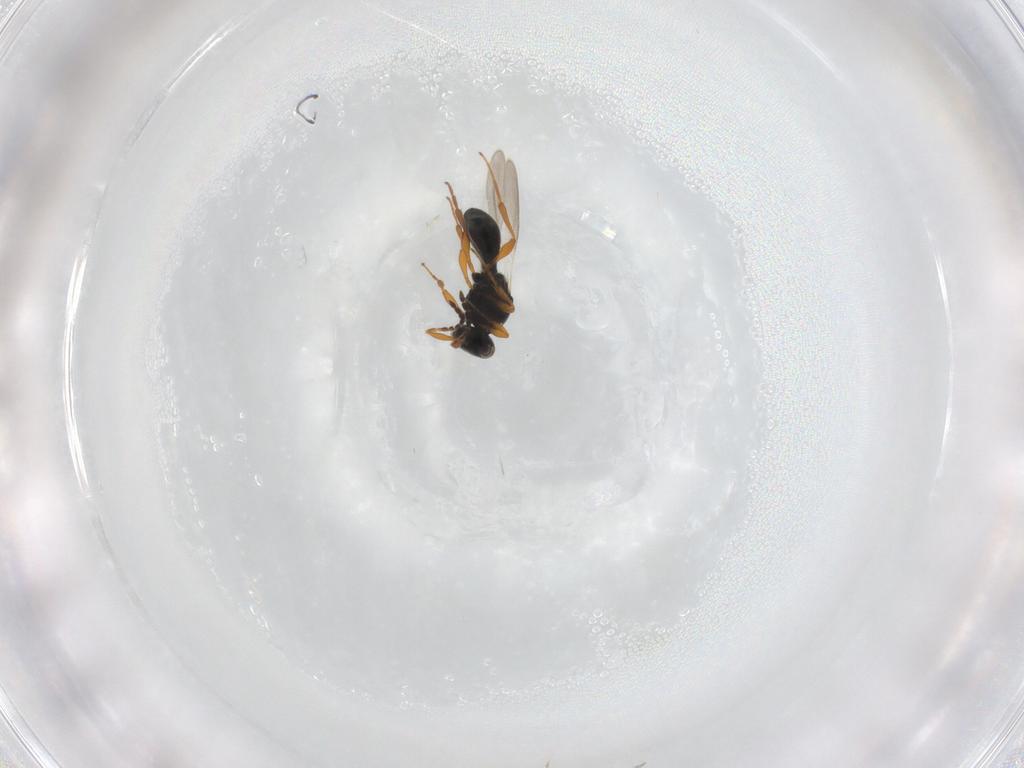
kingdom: Animalia
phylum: Arthropoda
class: Insecta
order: Hymenoptera
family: Platygastridae
